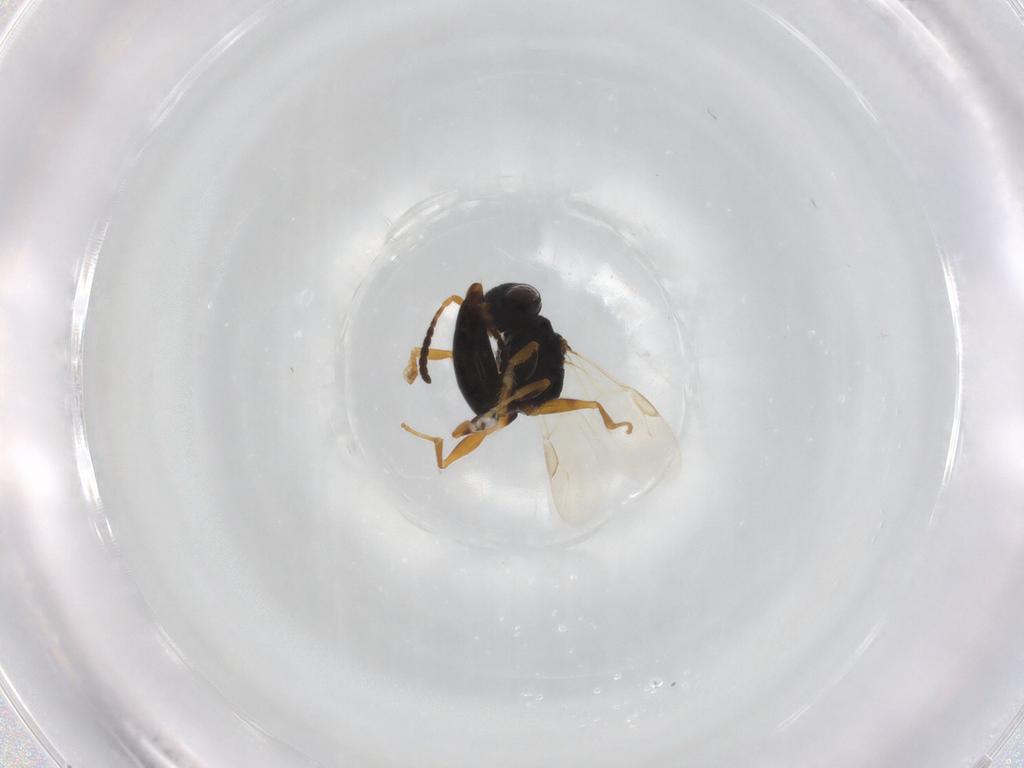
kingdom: Animalia
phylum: Arthropoda
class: Insecta
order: Hymenoptera
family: Dryinidae
